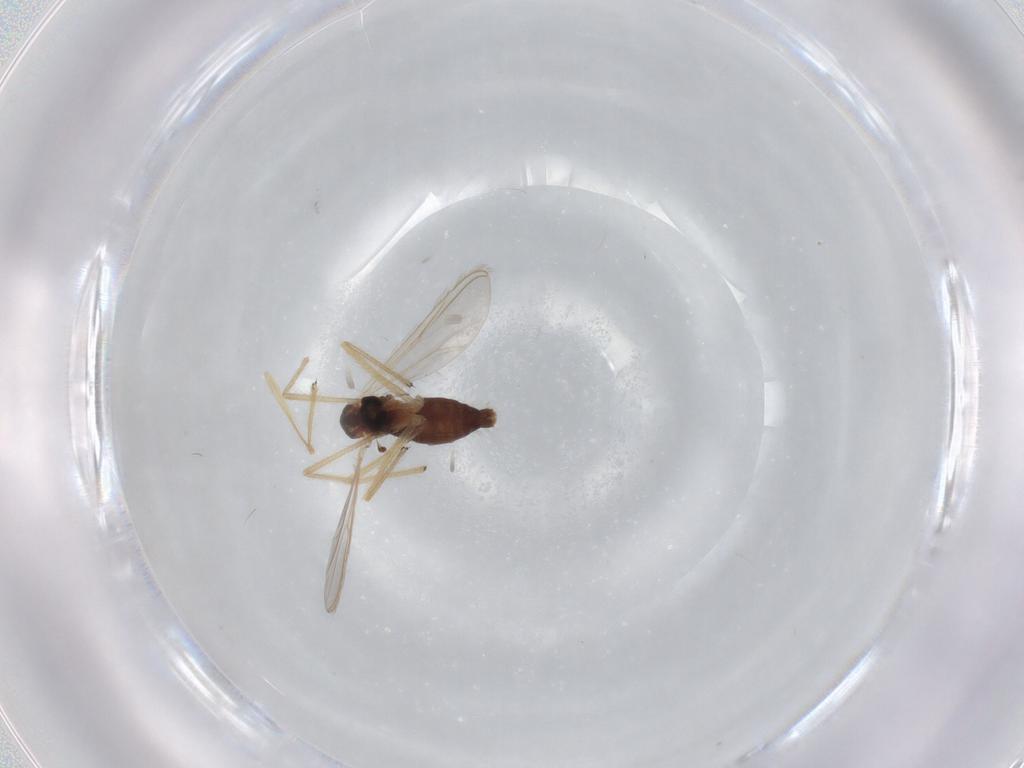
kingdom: Animalia
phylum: Arthropoda
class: Insecta
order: Diptera
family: Chironomidae
